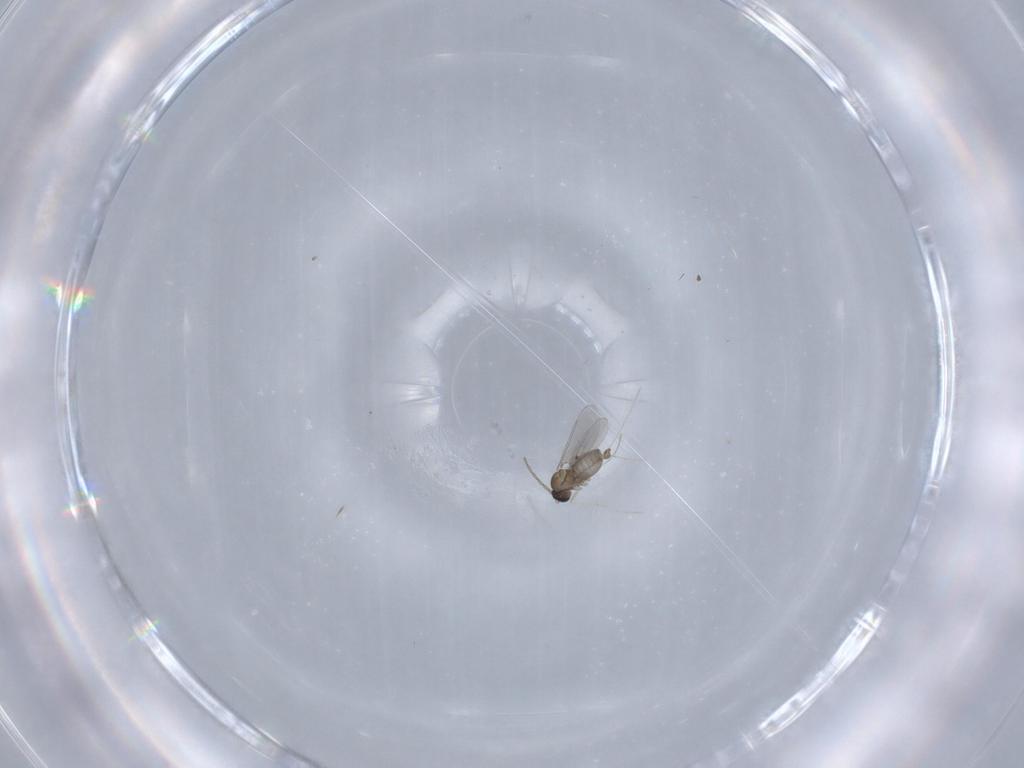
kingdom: Animalia
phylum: Arthropoda
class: Insecta
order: Diptera
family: Cecidomyiidae
